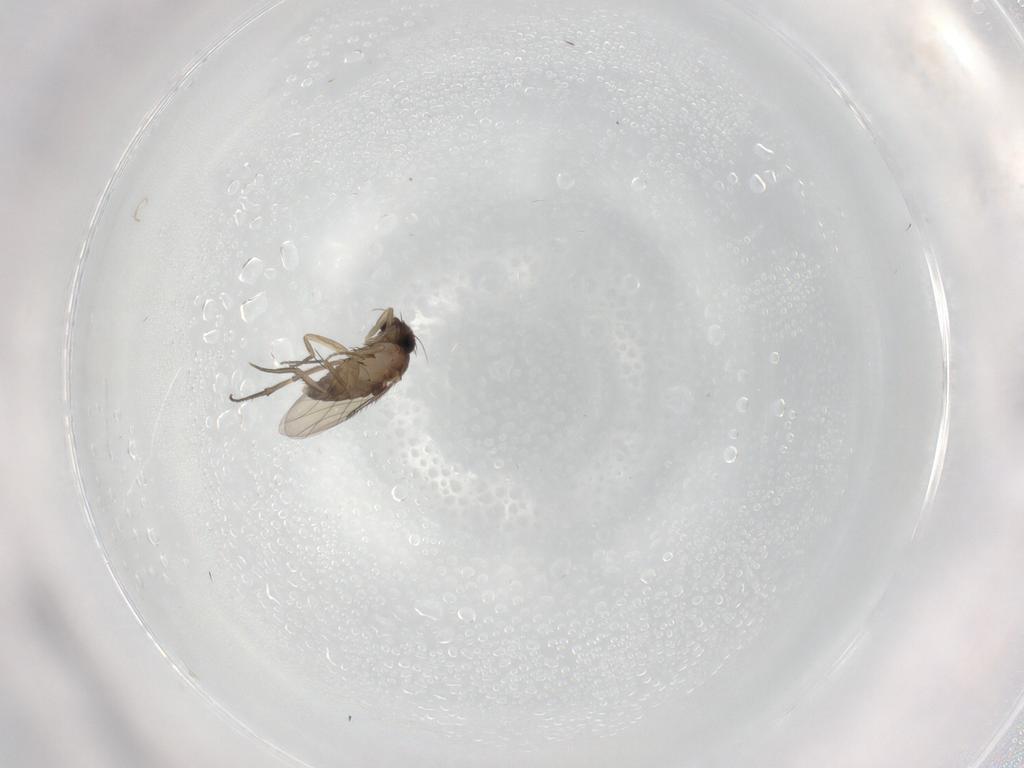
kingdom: Animalia
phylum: Arthropoda
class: Insecta
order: Diptera
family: Phoridae
